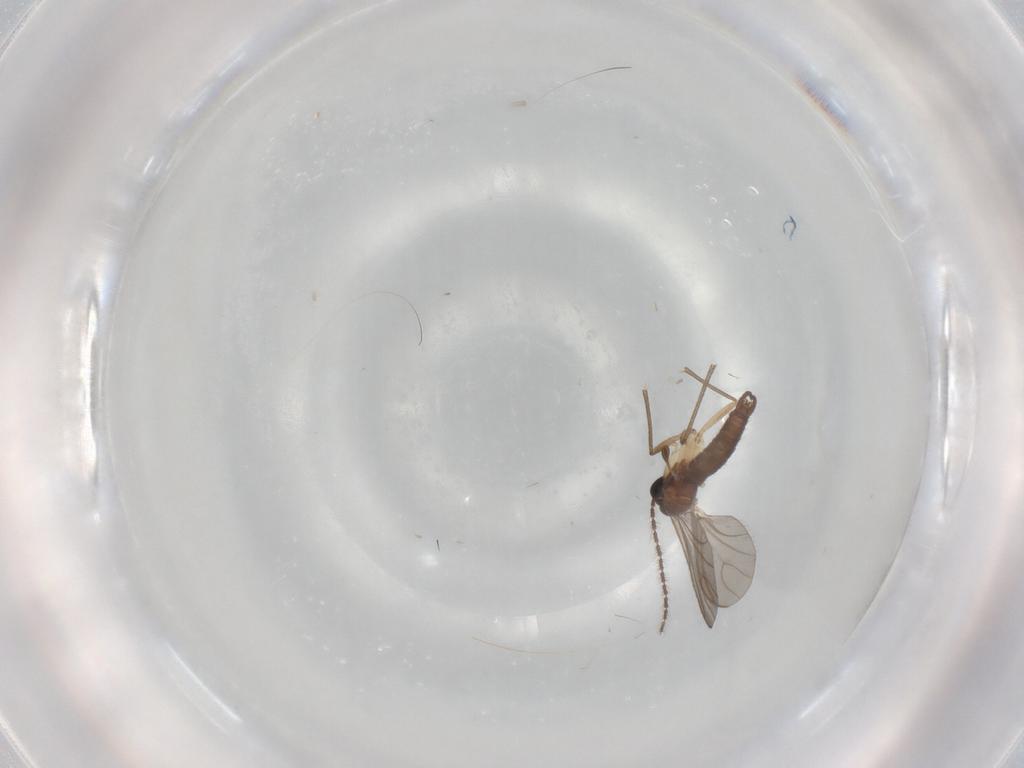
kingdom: Animalia
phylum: Arthropoda
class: Insecta
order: Diptera
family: Sciaridae
